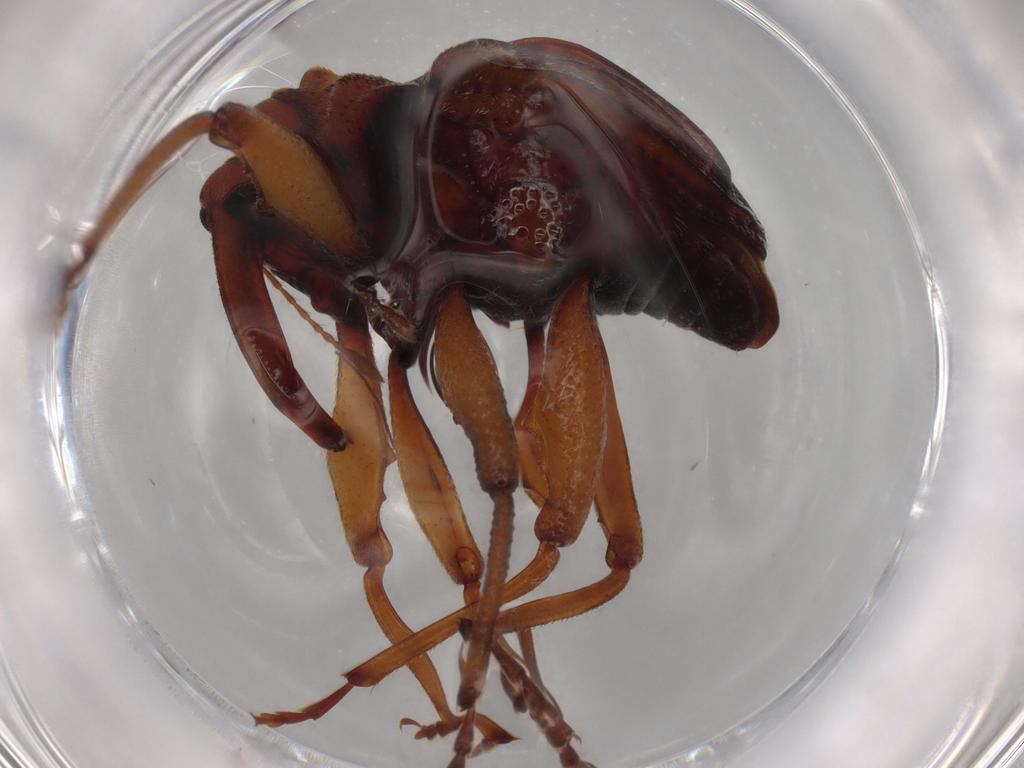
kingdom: Animalia
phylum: Arthropoda
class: Insecta
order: Coleoptera
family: Curculionidae
